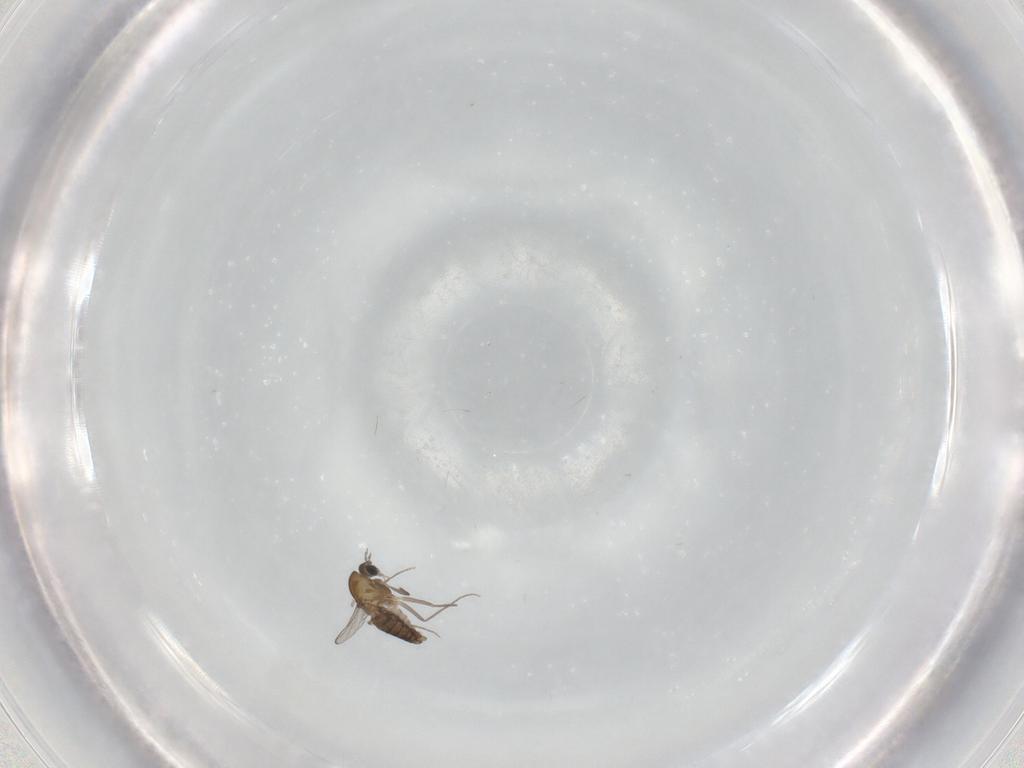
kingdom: Animalia
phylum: Arthropoda
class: Insecta
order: Diptera
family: Chironomidae
